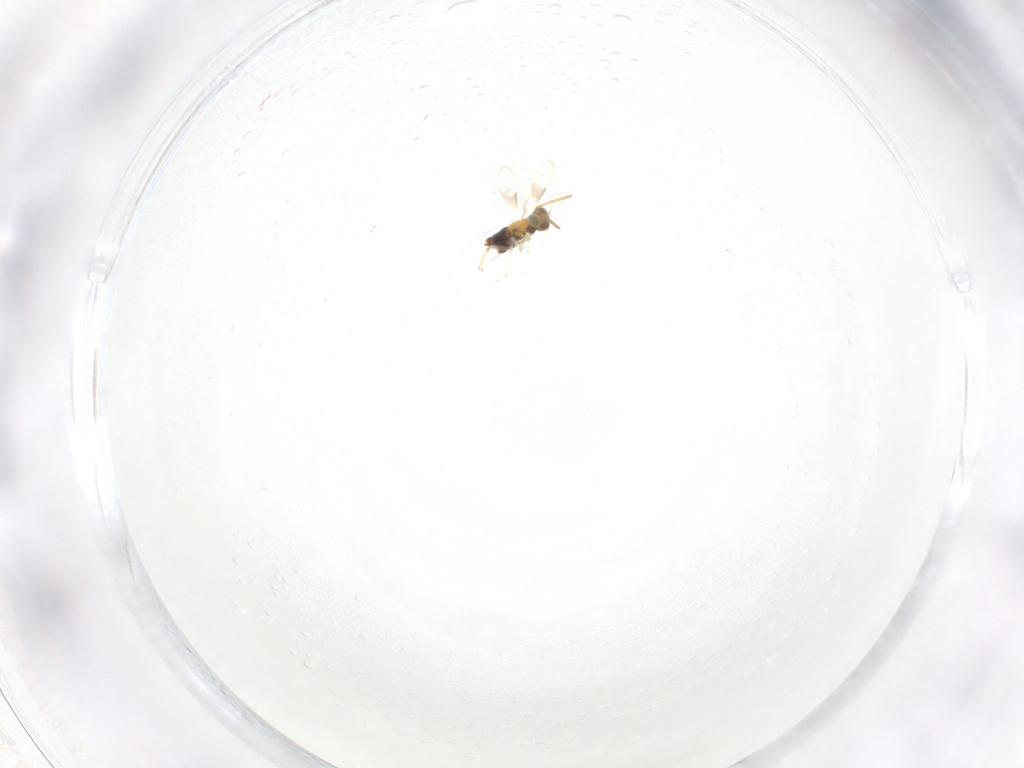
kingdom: Animalia
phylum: Arthropoda
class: Insecta
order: Hymenoptera
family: Aphelinidae
